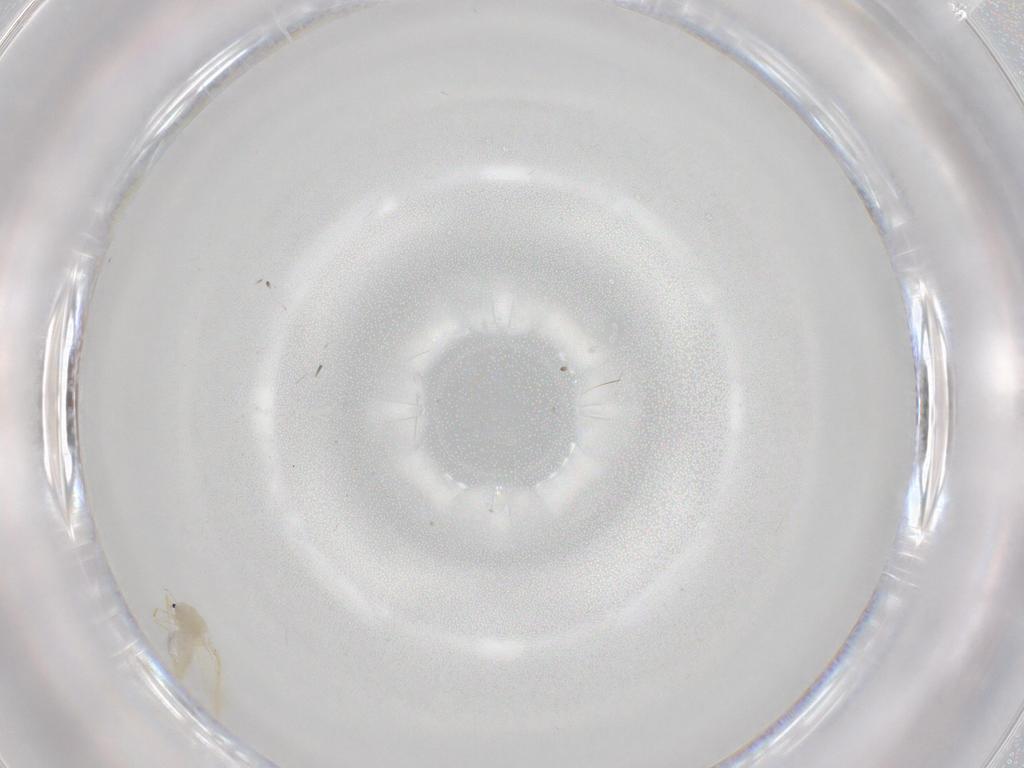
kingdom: Animalia
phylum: Arthropoda
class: Insecta
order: Hemiptera
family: Aleyrodidae
